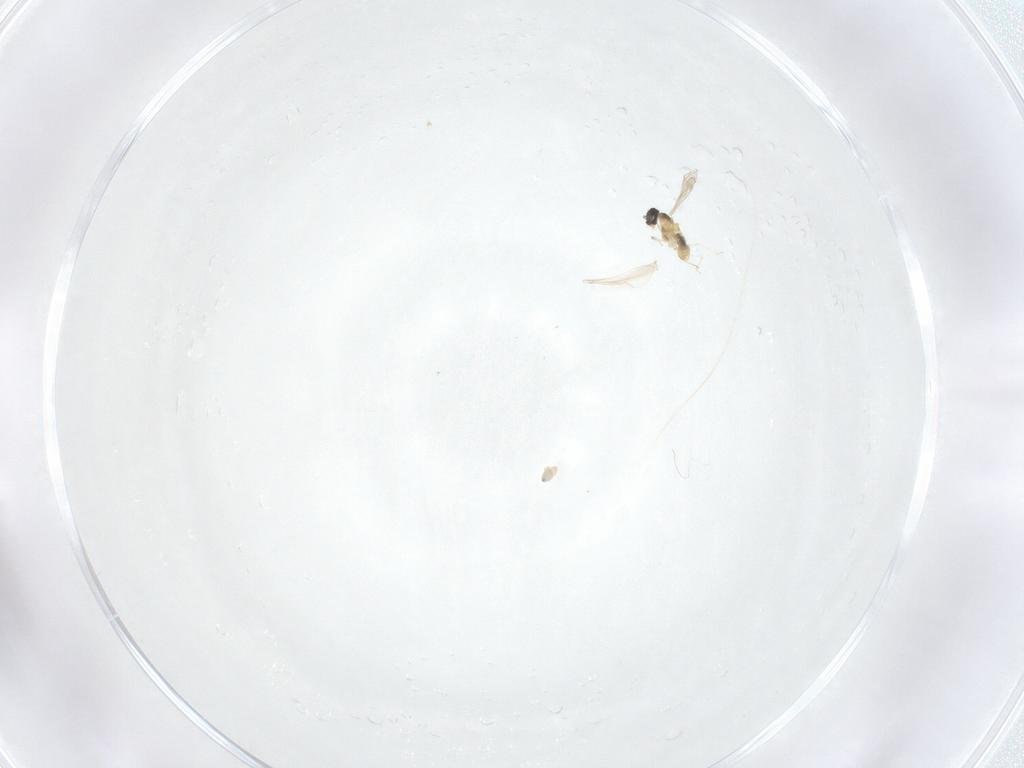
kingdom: Animalia
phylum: Arthropoda
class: Insecta
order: Diptera
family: Cecidomyiidae
